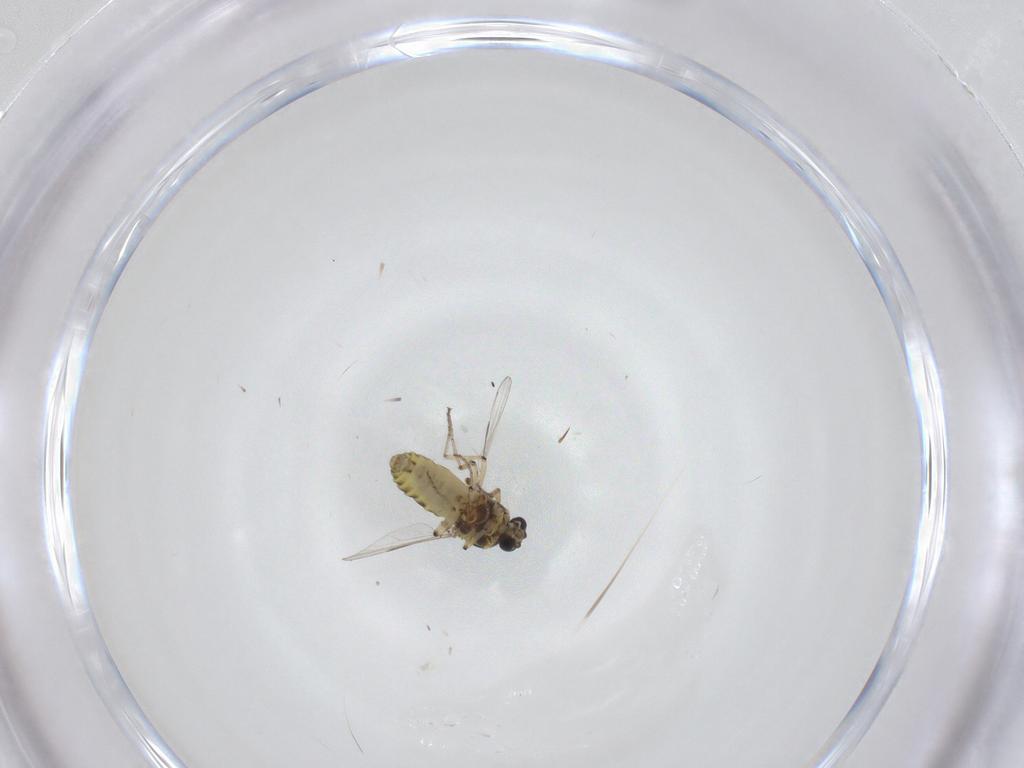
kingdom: Animalia
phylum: Arthropoda
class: Insecta
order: Diptera
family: Ceratopogonidae
